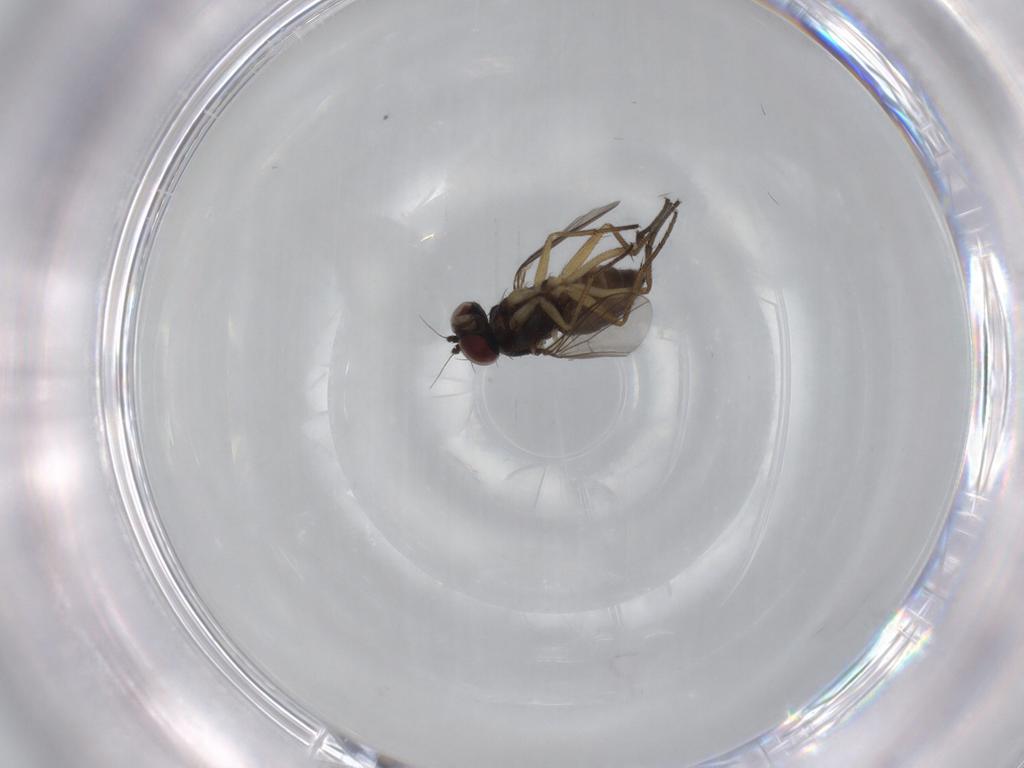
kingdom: Animalia
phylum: Arthropoda
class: Insecta
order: Diptera
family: Dolichopodidae
